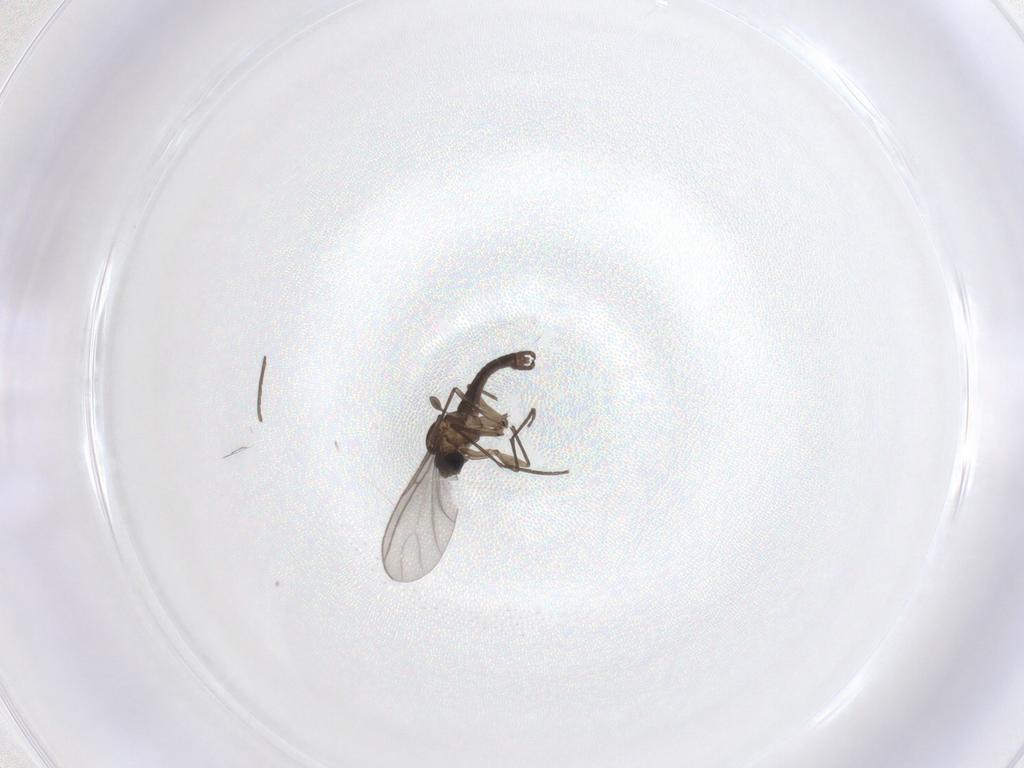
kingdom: Animalia
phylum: Arthropoda
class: Insecta
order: Diptera
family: Sciaridae
